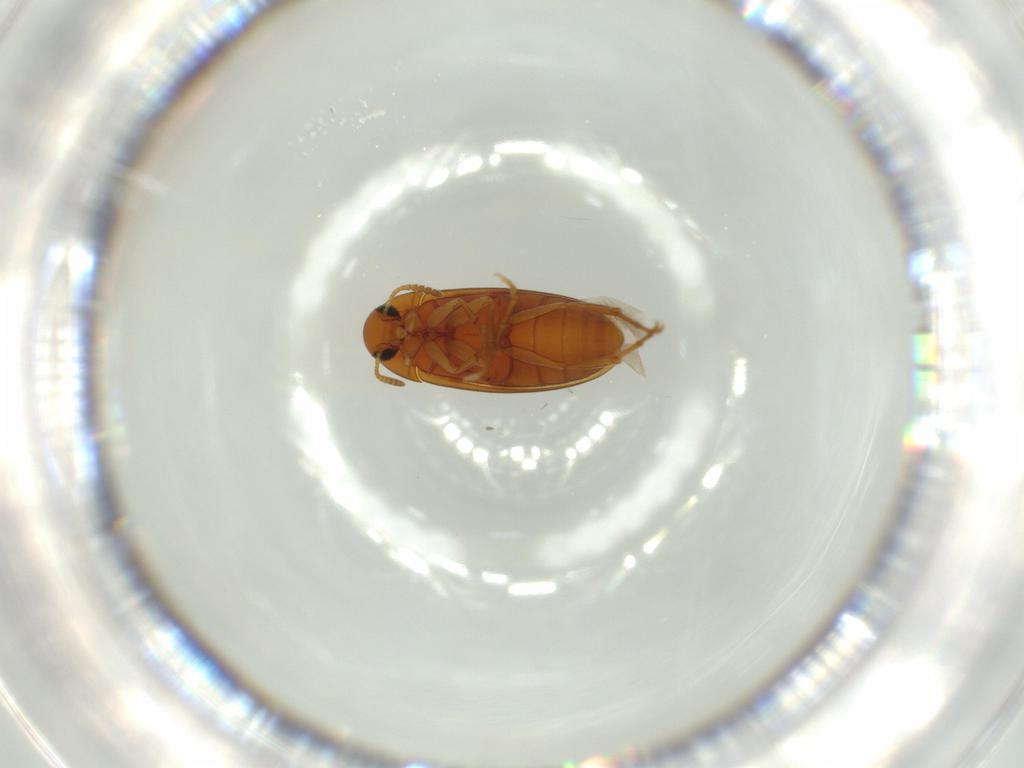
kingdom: Animalia
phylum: Arthropoda
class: Insecta
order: Coleoptera
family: Scraptiidae
